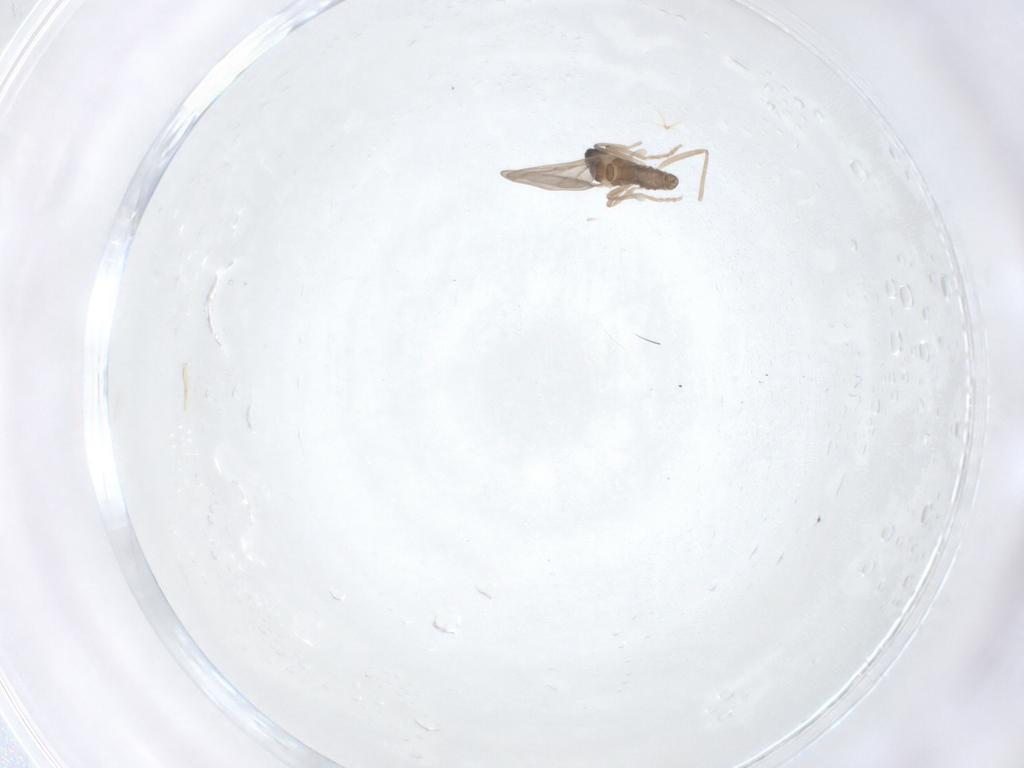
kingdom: Animalia
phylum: Arthropoda
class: Insecta
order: Diptera
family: Cecidomyiidae
